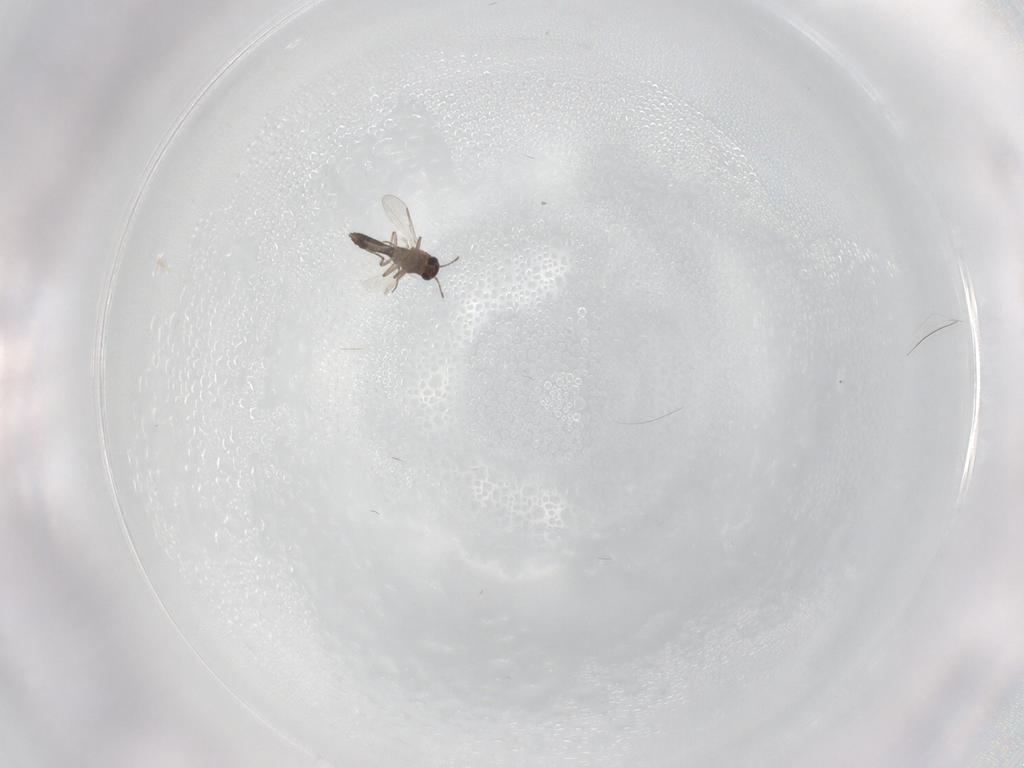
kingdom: Animalia
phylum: Arthropoda
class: Insecta
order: Diptera
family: Chironomidae
